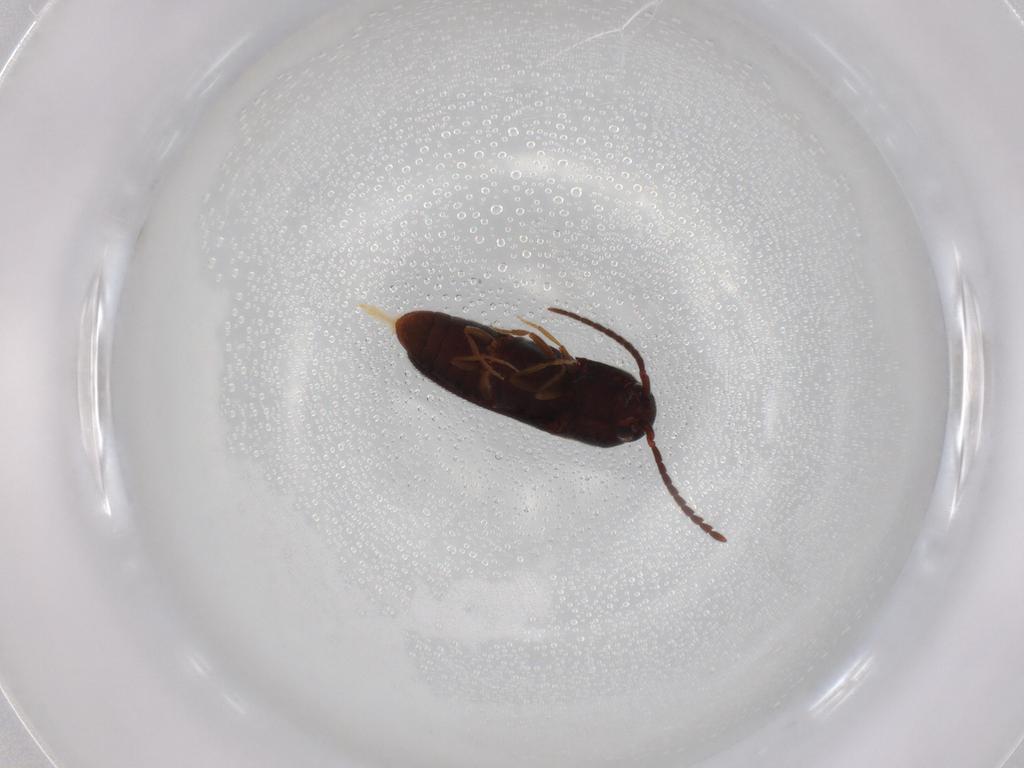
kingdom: Animalia
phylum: Arthropoda
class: Insecta
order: Coleoptera
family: Eucnemidae
